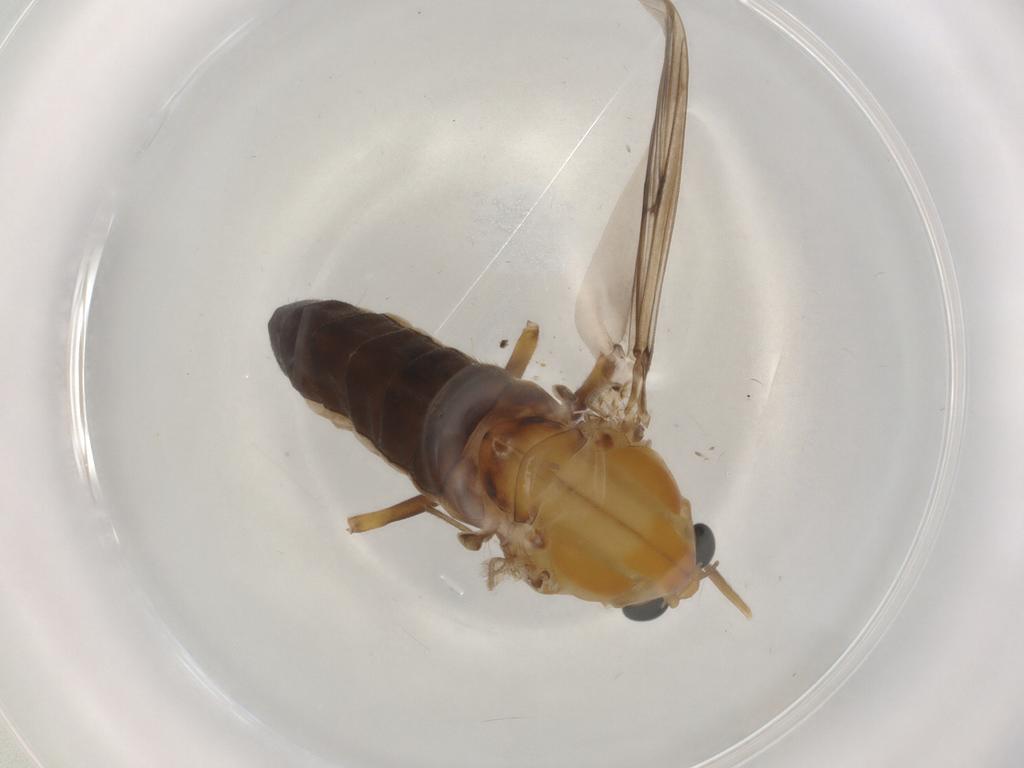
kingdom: Animalia
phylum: Arthropoda
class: Insecta
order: Diptera
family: Chironomidae
